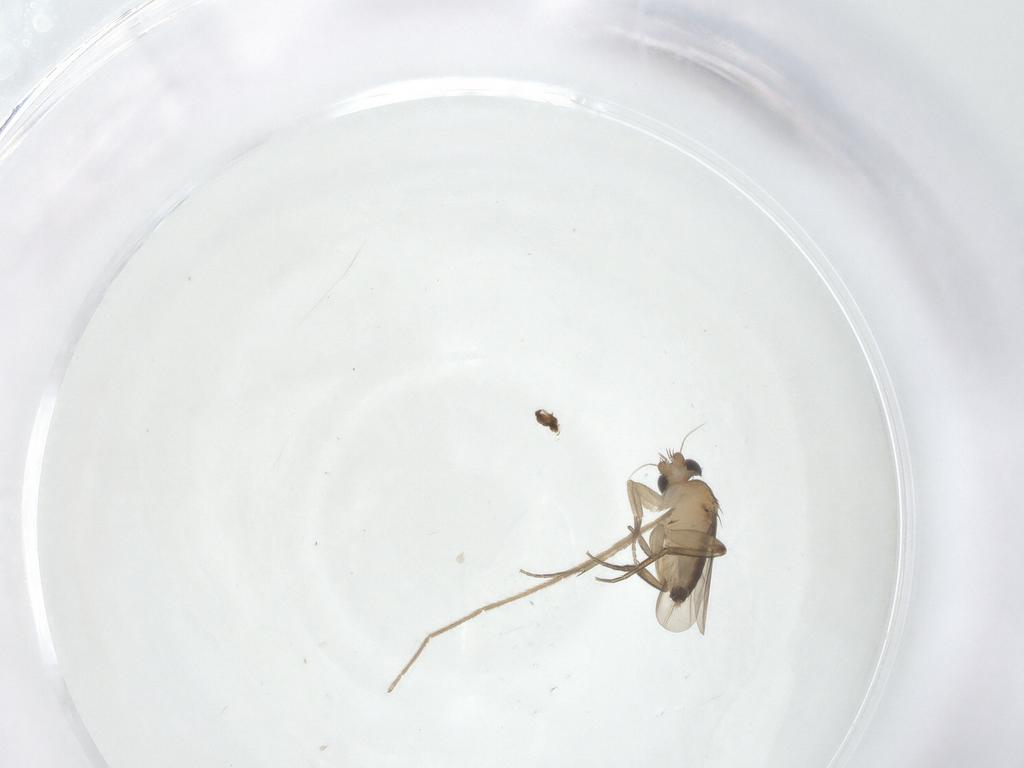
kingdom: Animalia
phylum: Arthropoda
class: Insecta
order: Diptera
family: Phoridae
